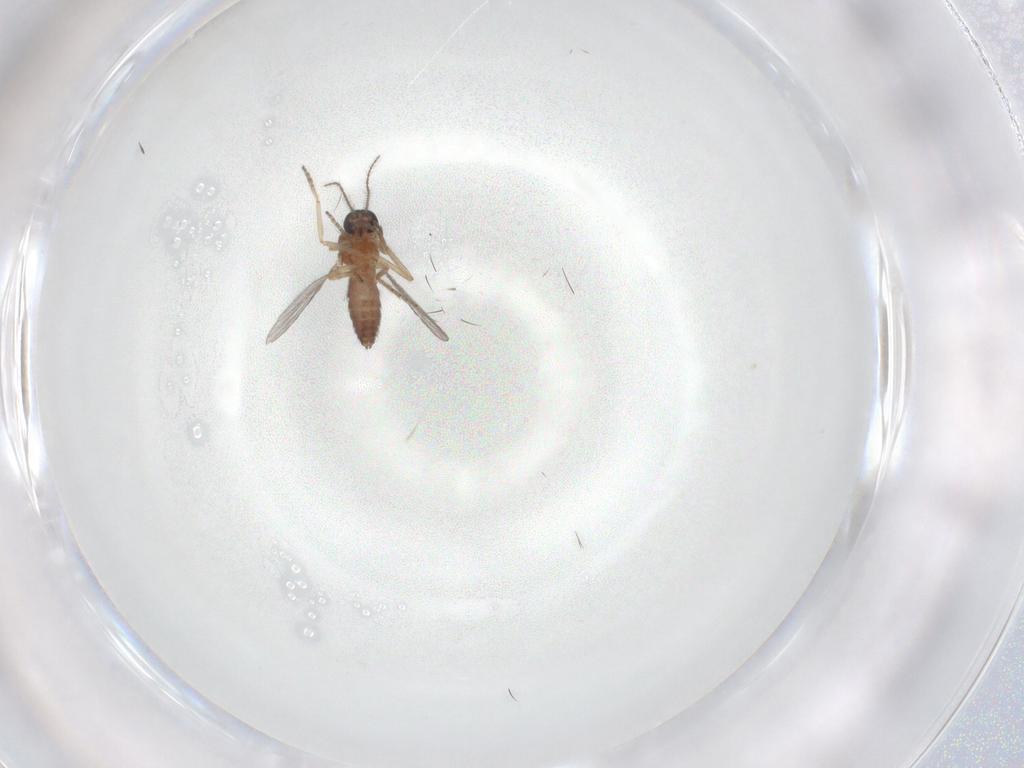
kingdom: Animalia
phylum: Arthropoda
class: Insecta
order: Diptera
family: Ceratopogonidae
